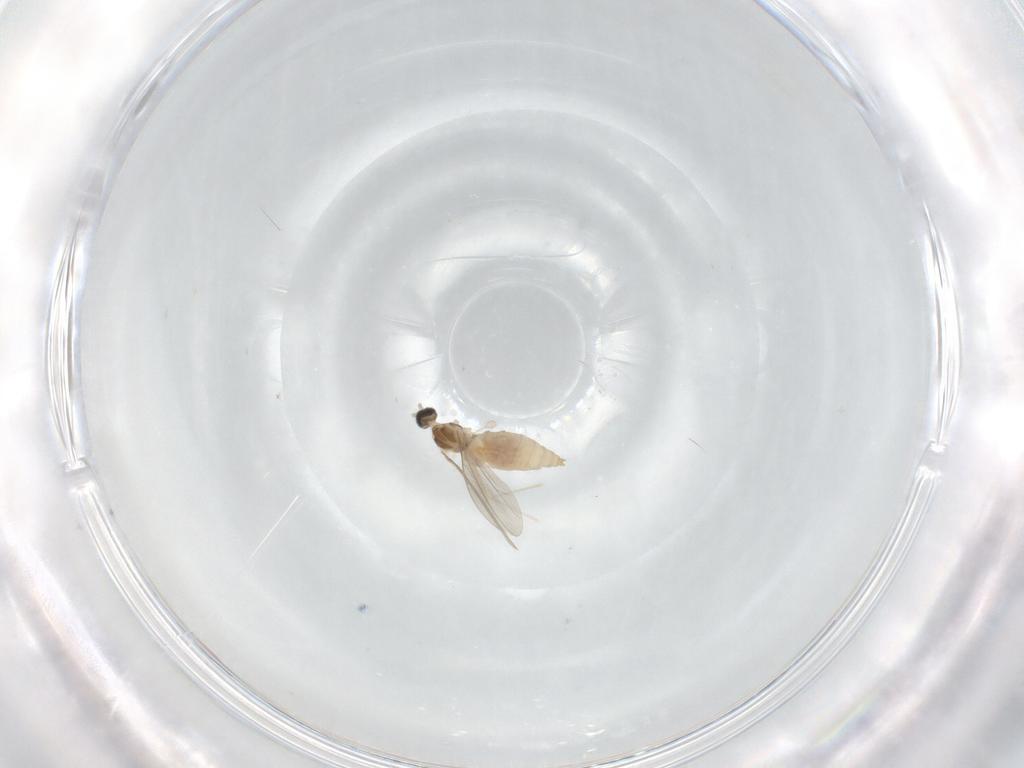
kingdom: Animalia
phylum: Arthropoda
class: Insecta
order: Diptera
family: Cecidomyiidae
